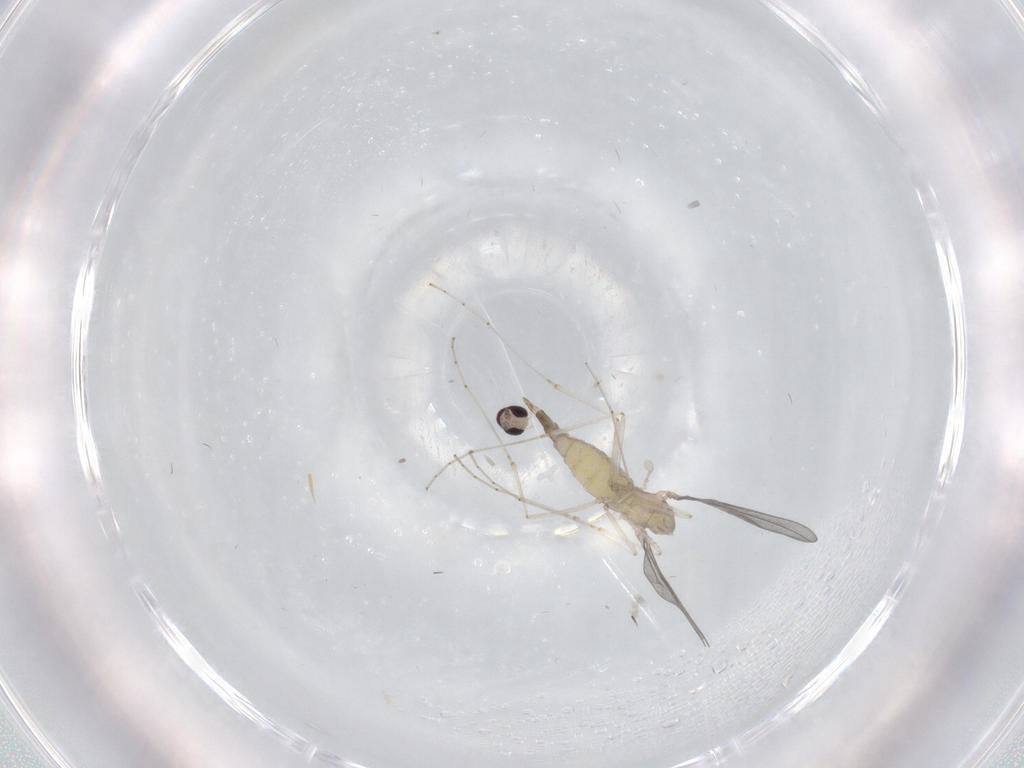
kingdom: Animalia
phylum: Arthropoda
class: Insecta
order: Diptera
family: Cecidomyiidae
